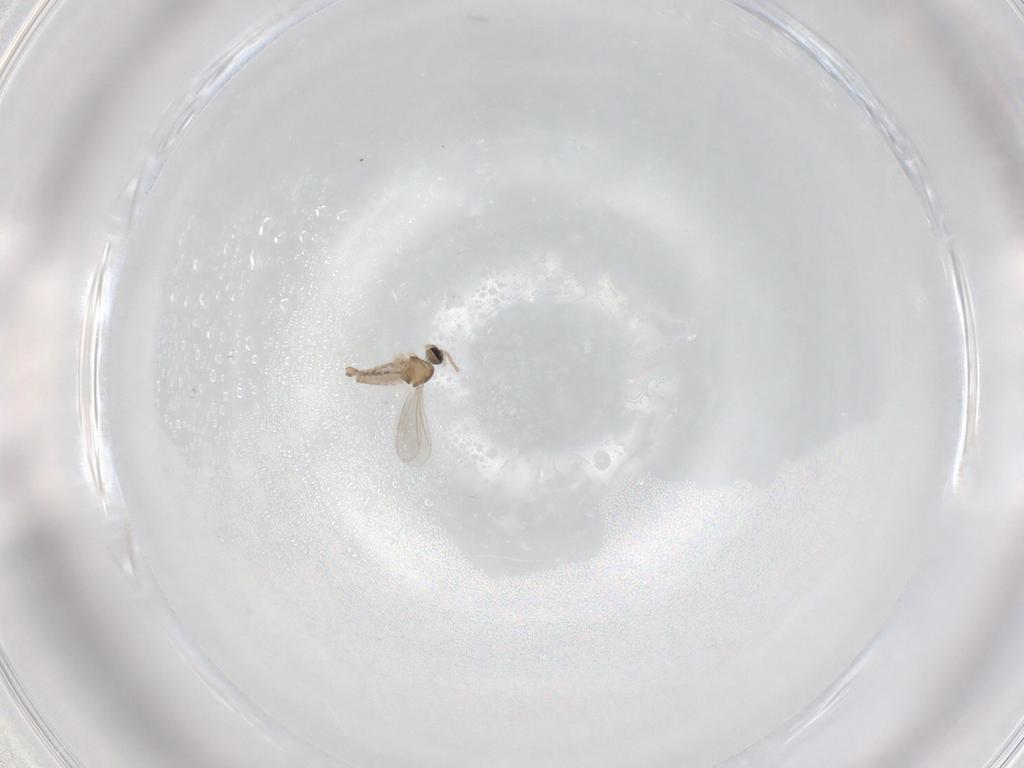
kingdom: Animalia
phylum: Arthropoda
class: Insecta
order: Diptera
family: Cecidomyiidae
